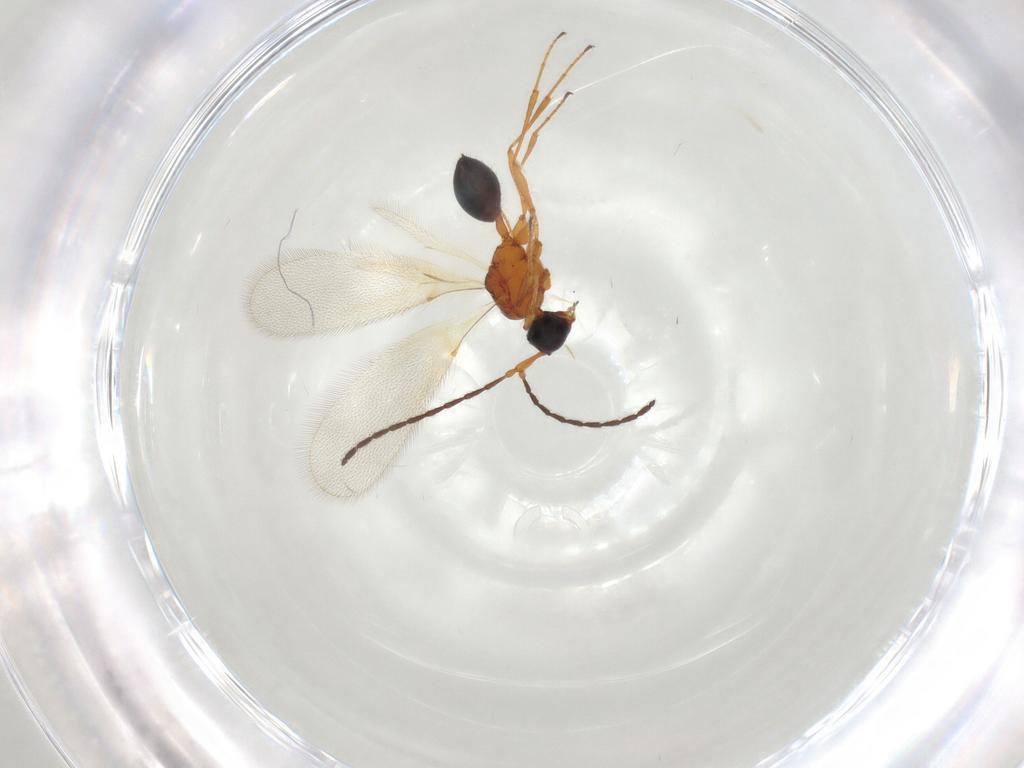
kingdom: Animalia
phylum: Arthropoda
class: Insecta
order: Hymenoptera
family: Diapriidae
